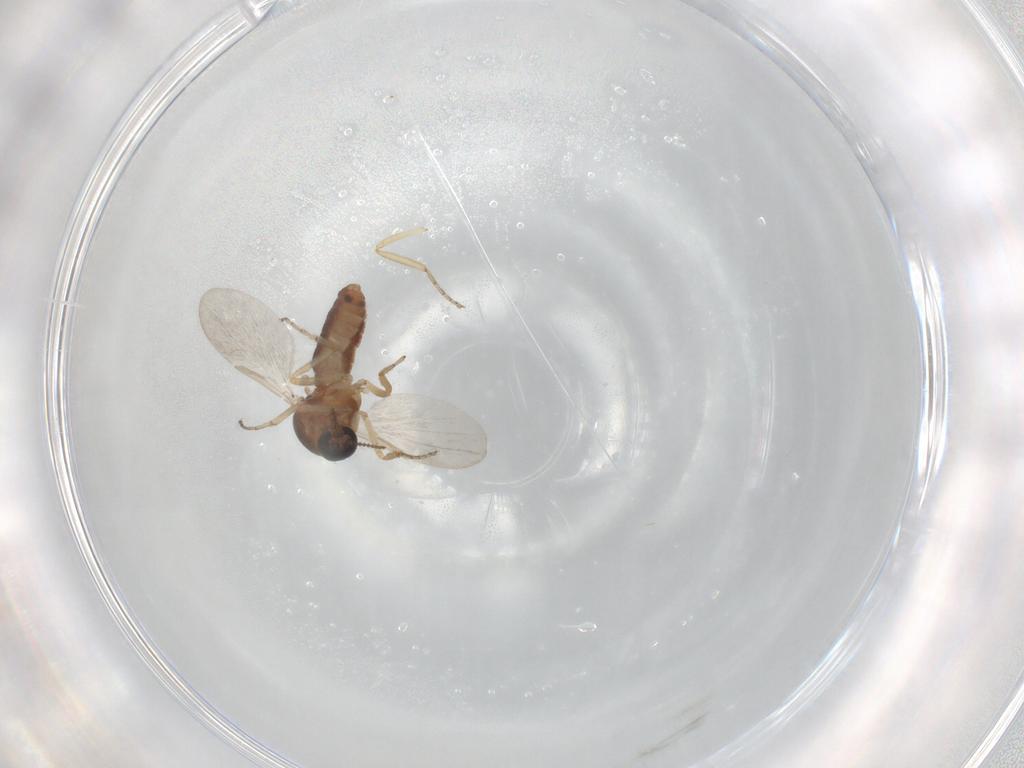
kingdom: Animalia
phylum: Arthropoda
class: Insecta
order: Diptera
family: Ceratopogonidae
